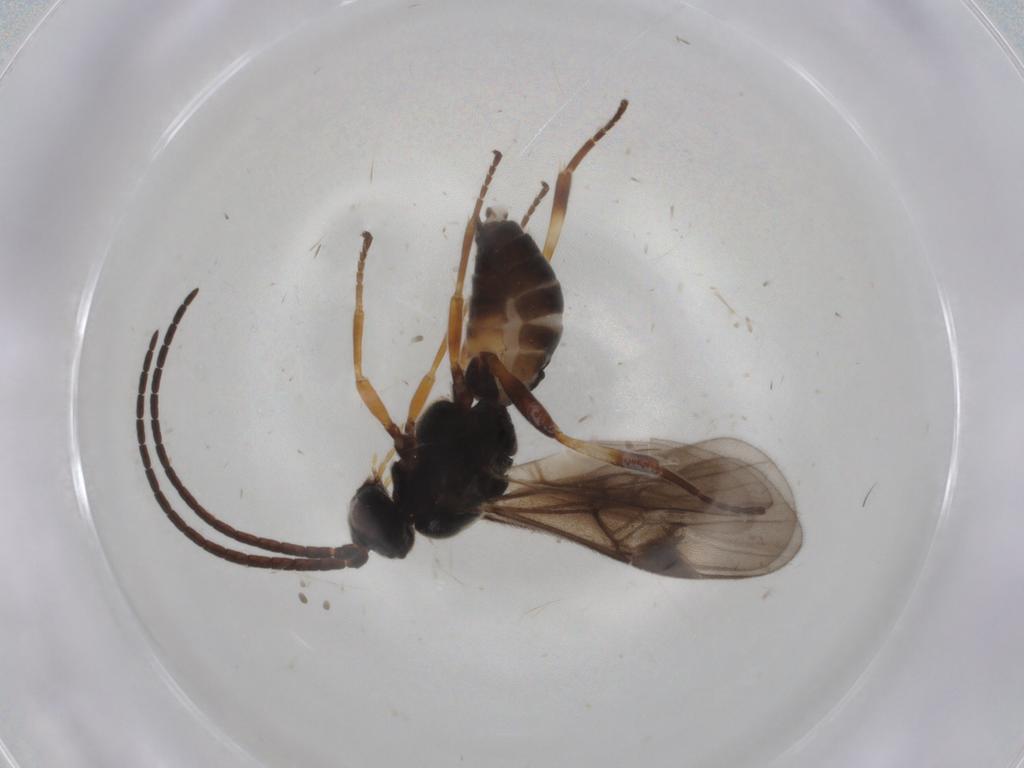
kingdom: Animalia
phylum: Arthropoda
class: Insecta
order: Hymenoptera
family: Braconidae
